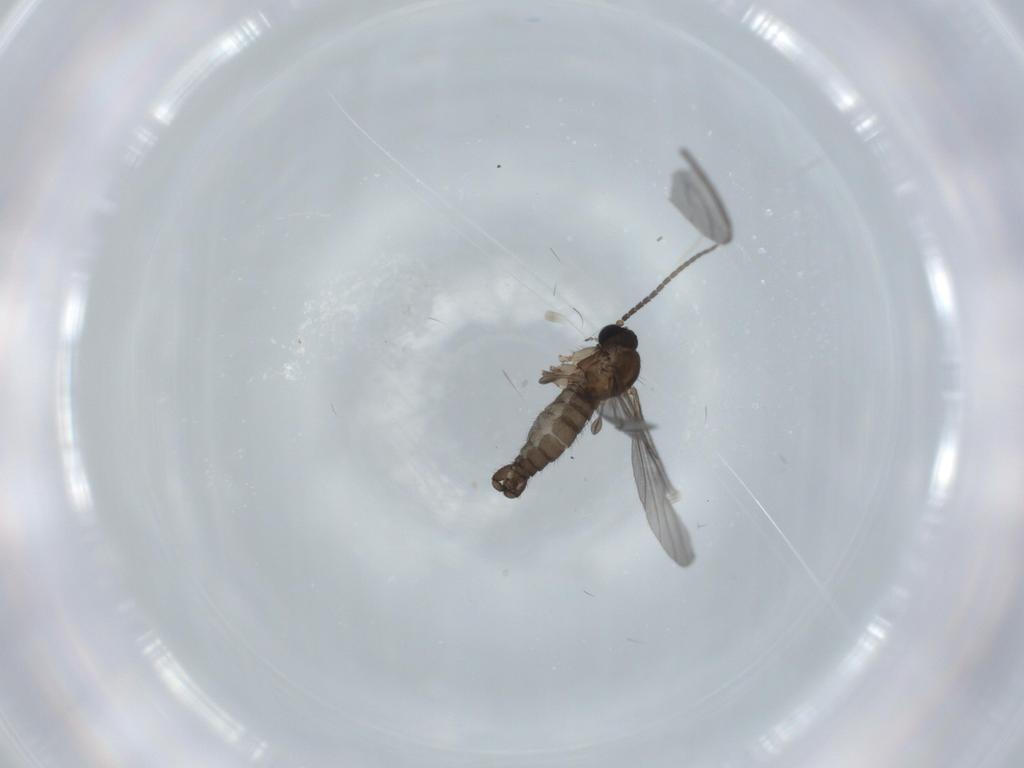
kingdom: Animalia
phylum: Arthropoda
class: Insecta
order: Diptera
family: Sciaridae
